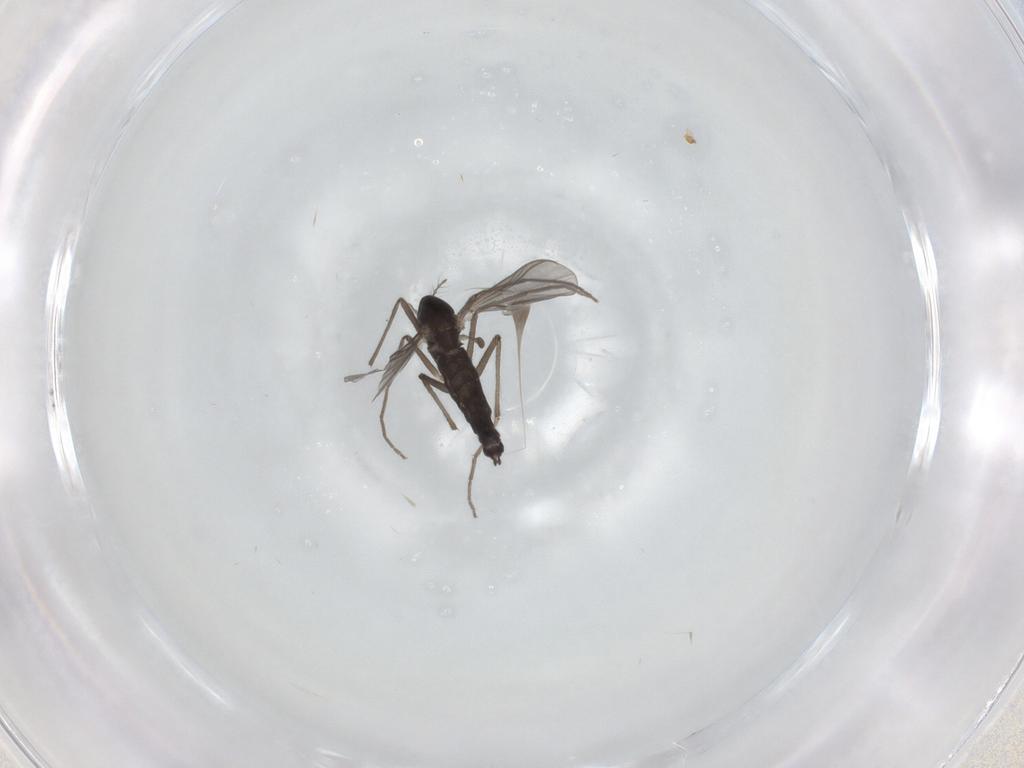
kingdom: Animalia
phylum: Arthropoda
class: Insecta
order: Diptera
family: Chironomidae
